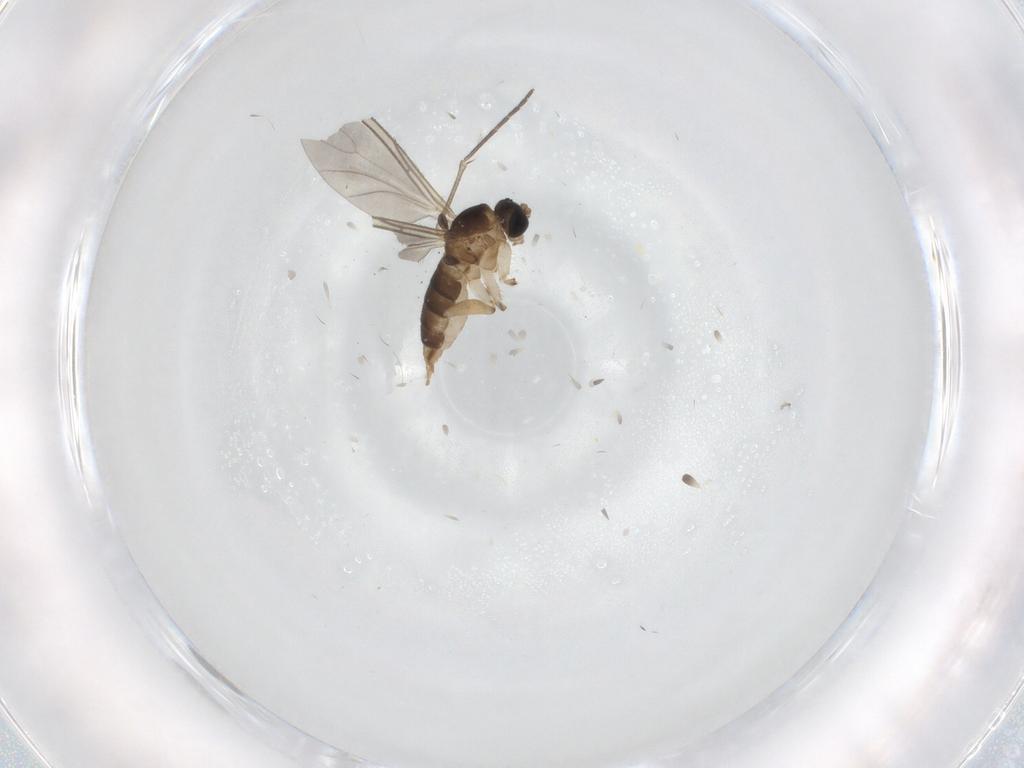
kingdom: Animalia
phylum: Arthropoda
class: Insecta
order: Diptera
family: Sciaridae
